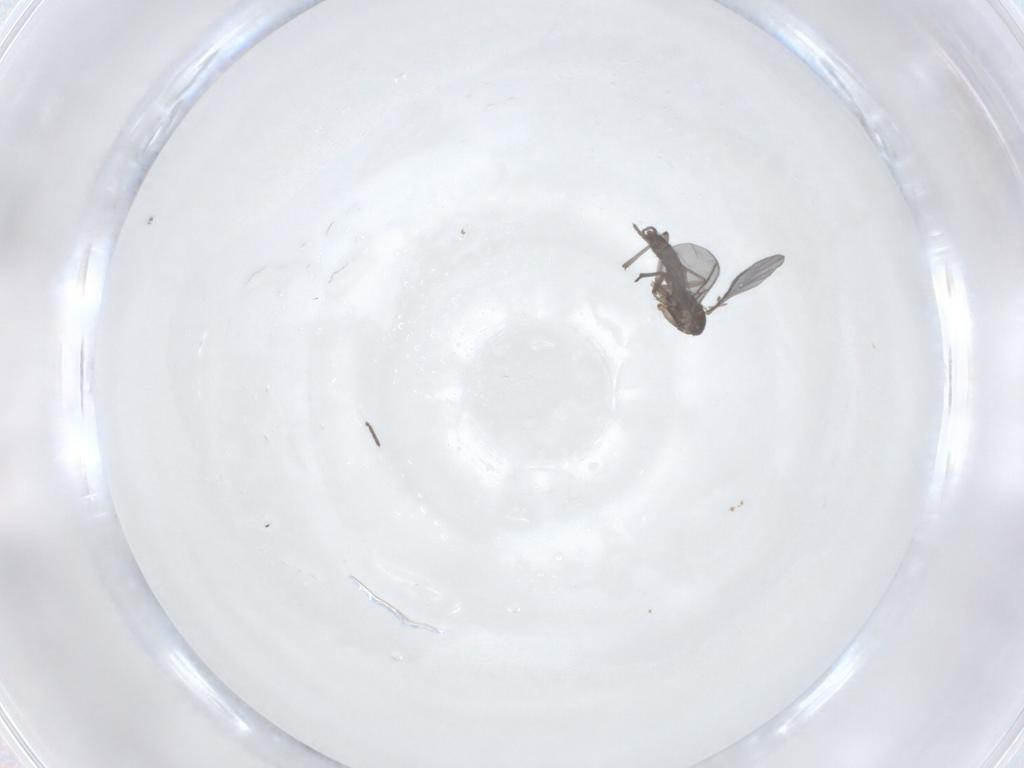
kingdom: Animalia
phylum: Arthropoda
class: Insecta
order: Diptera
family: Sciaridae
